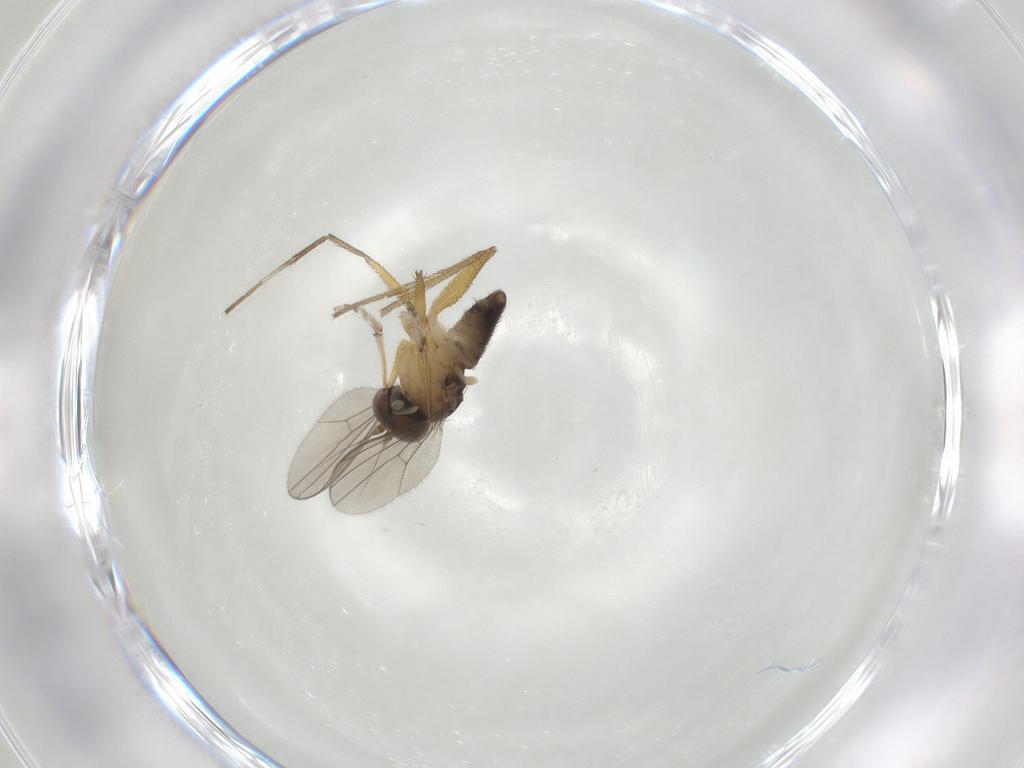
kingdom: Animalia
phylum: Arthropoda
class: Insecta
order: Diptera
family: Dolichopodidae
